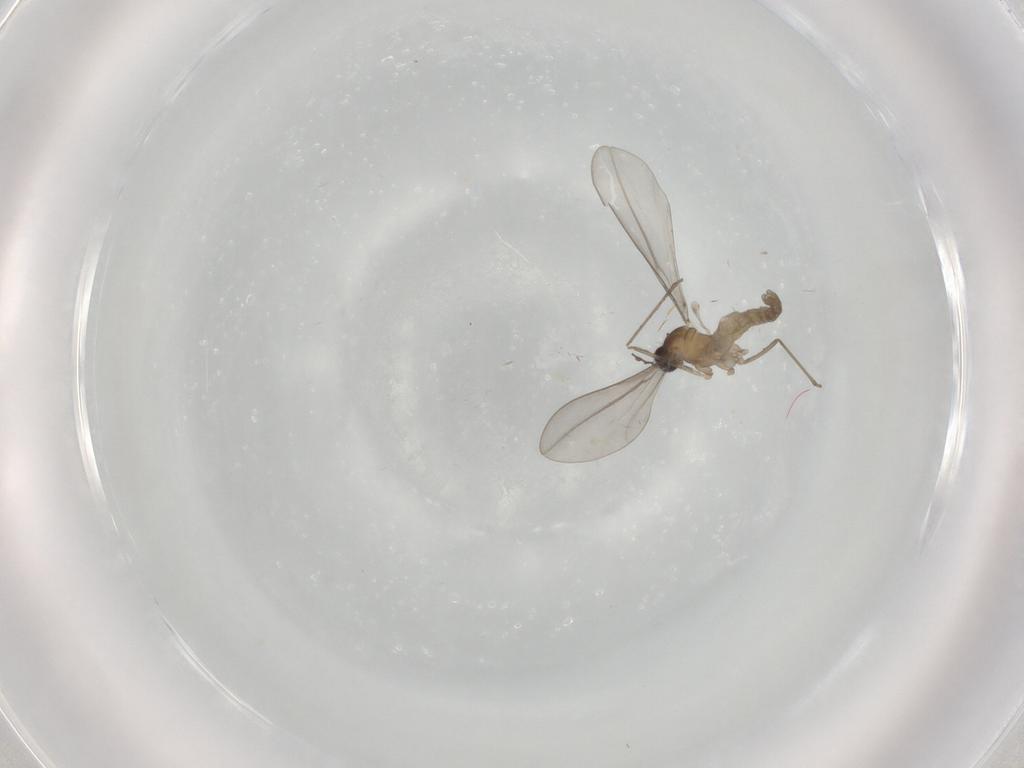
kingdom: Animalia
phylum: Arthropoda
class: Insecta
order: Diptera
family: Cecidomyiidae
